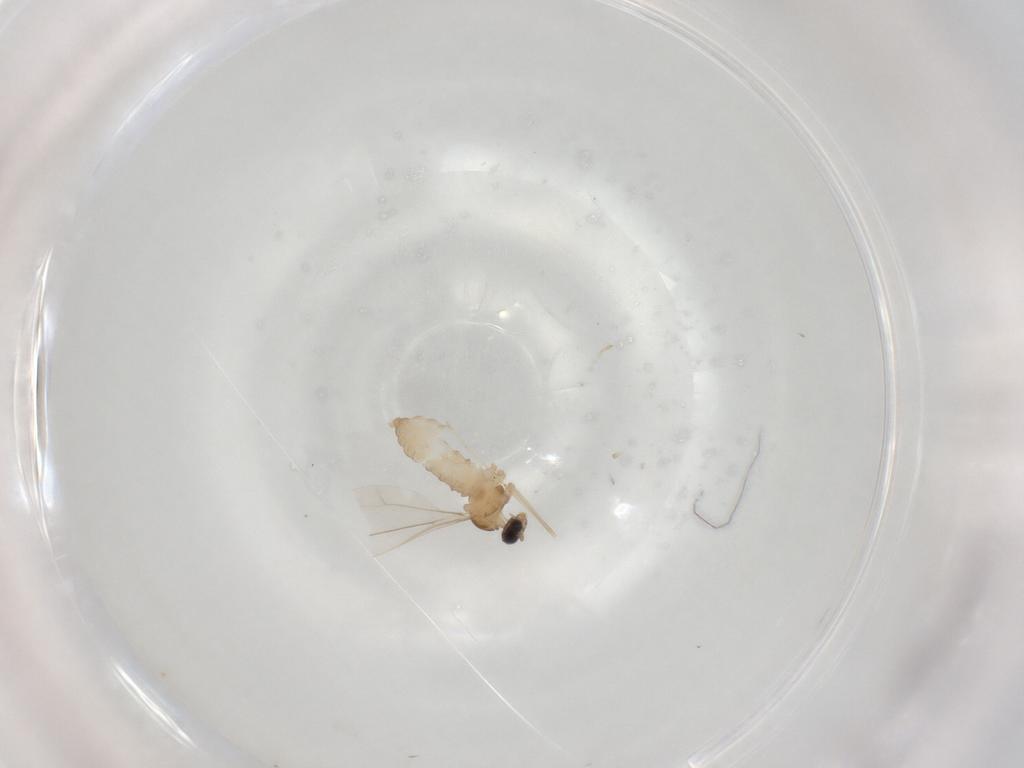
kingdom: Animalia
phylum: Arthropoda
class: Insecta
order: Diptera
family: Cecidomyiidae
